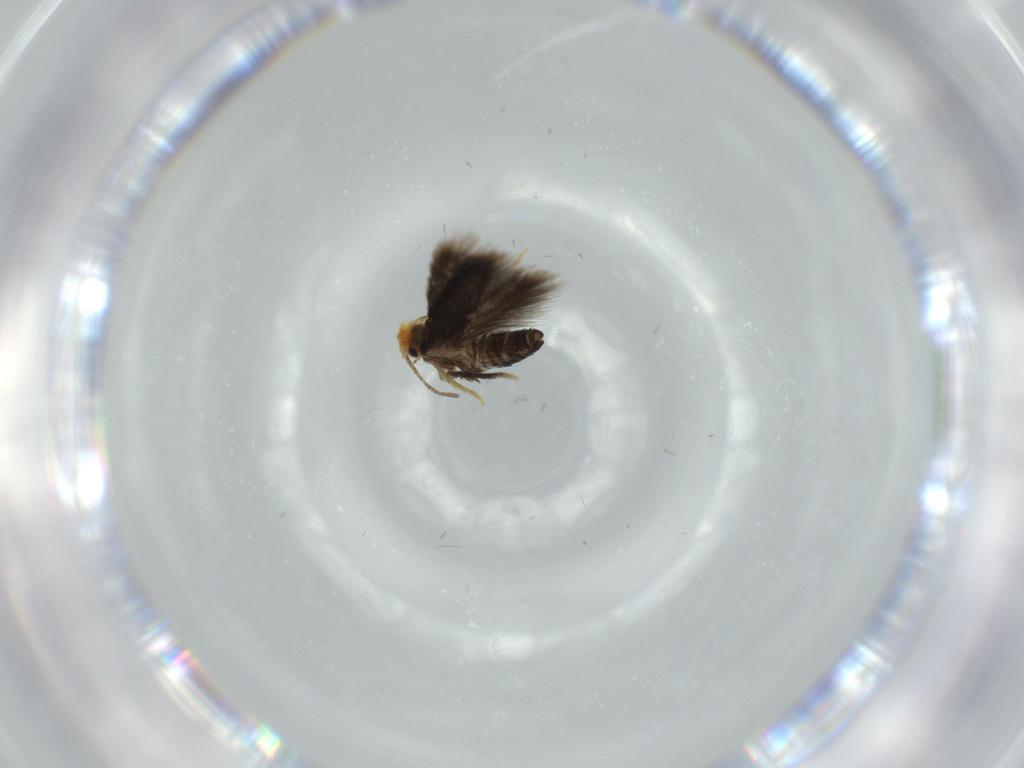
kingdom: Animalia
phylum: Arthropoda
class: Insecta
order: Lepidoptera
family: Nepticulidae
